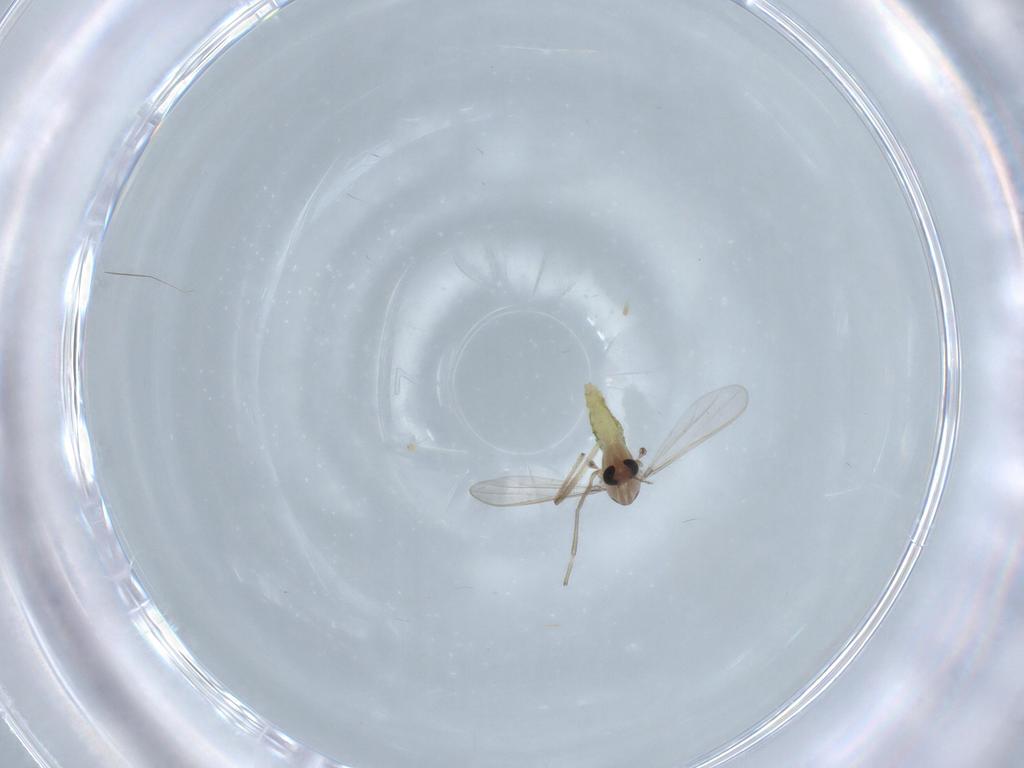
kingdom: Animalia
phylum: Arthropoda
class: Insecta
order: Diptera
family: Chironomidae
